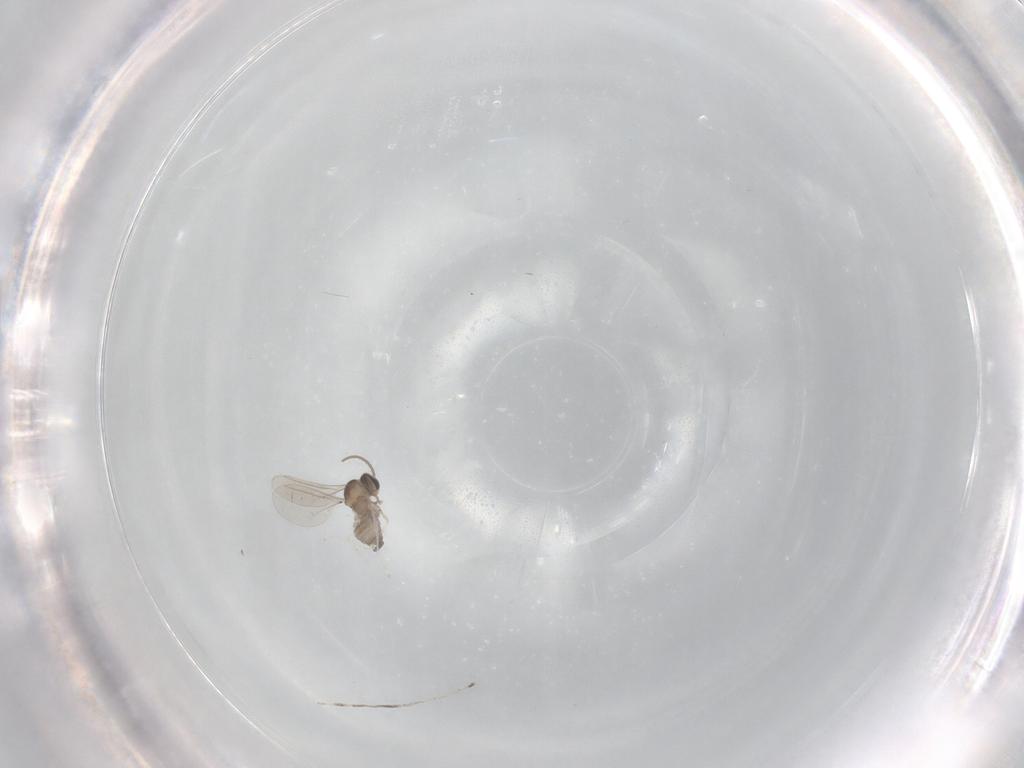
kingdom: Animalia
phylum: Arthropoda
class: Insecta
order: Diptera
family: Cecidomyiidae
